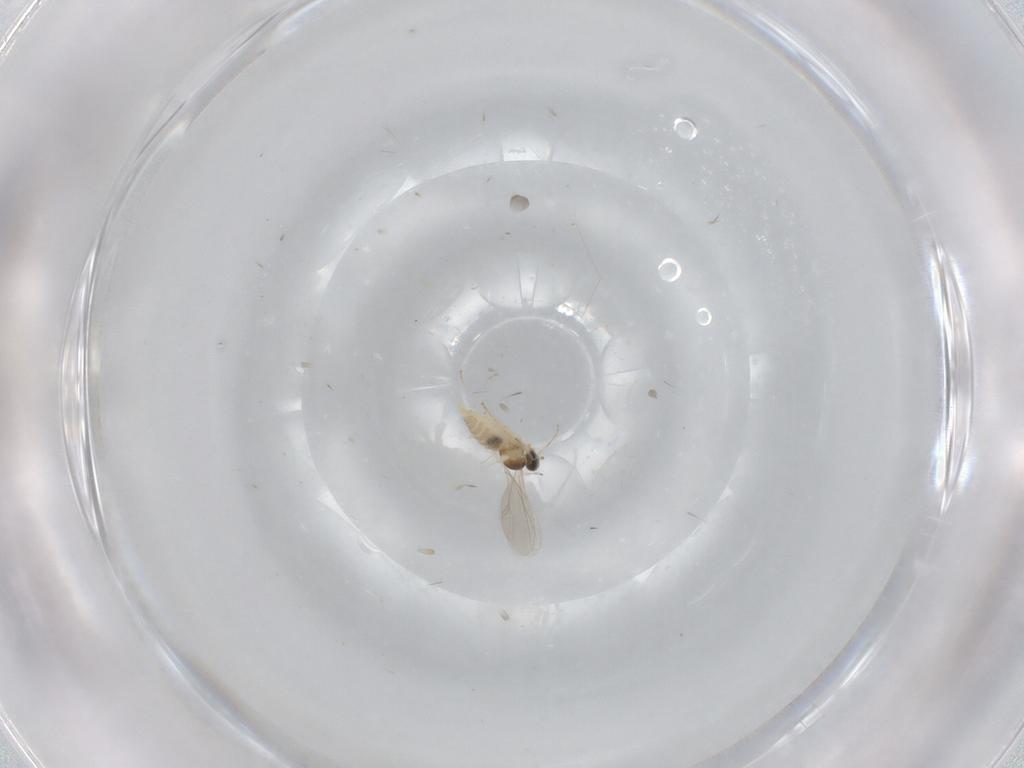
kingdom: Animalia
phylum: Arthropoda
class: Insecta
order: Diptera
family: Cecidomyiidae
